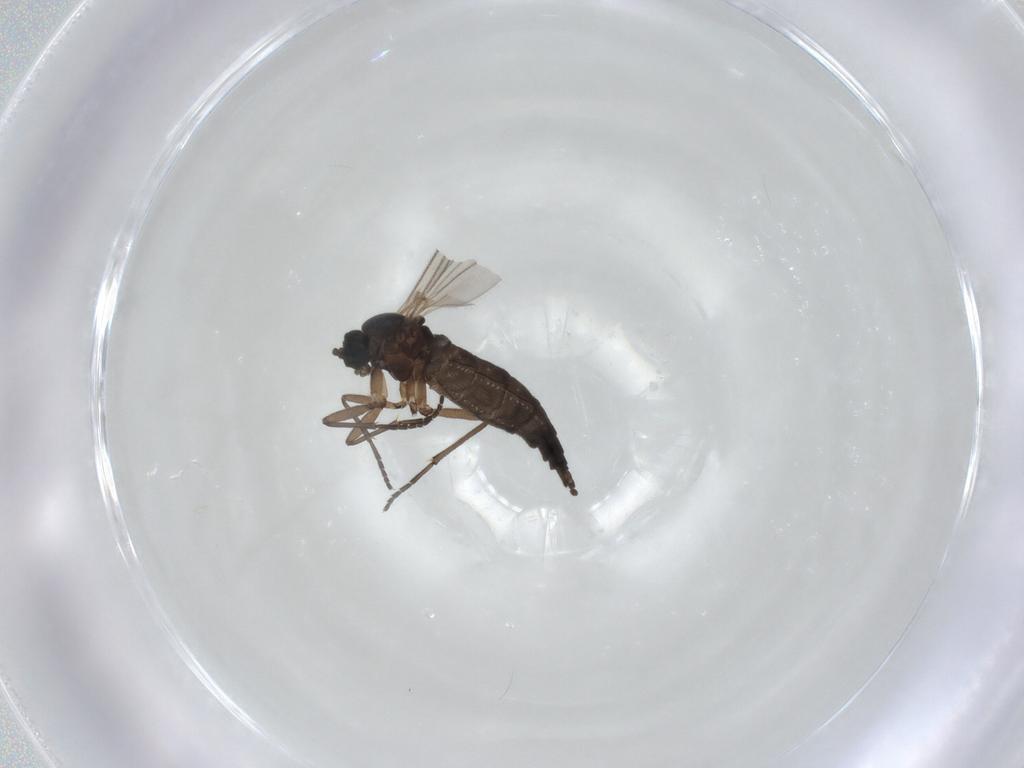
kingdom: Animalia
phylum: Arthropoda
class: Insecta
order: Diptera
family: Sciaridae
